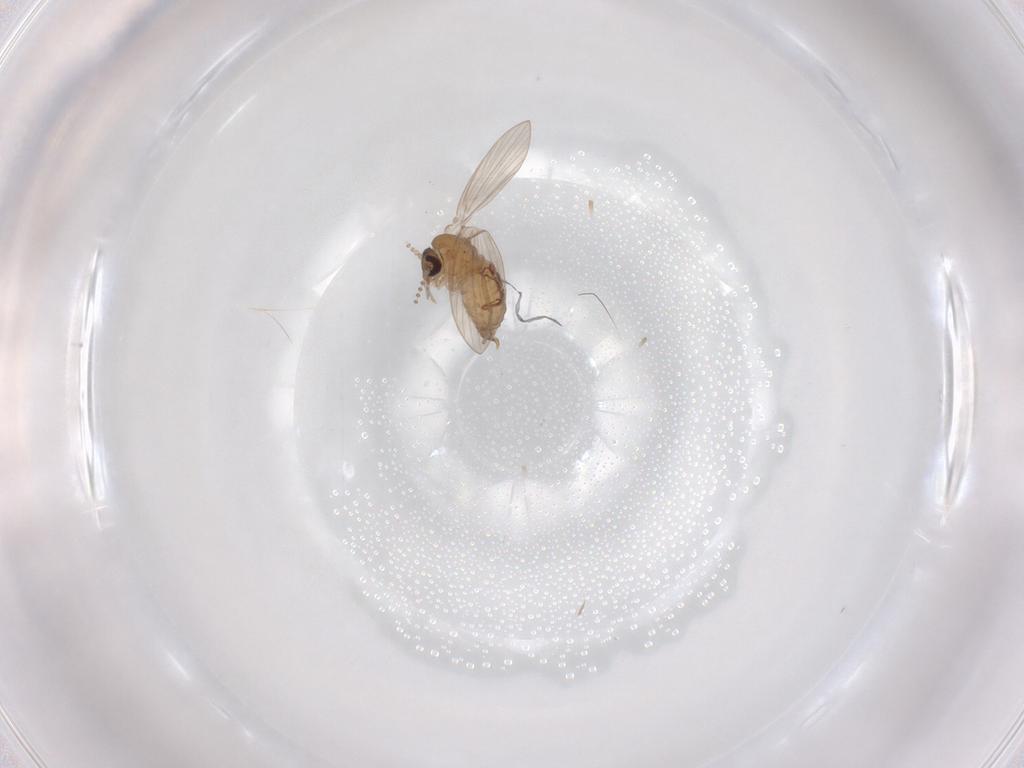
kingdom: Animalia
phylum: Arthropoda
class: Insecta
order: Diptera
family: Psychodidae
